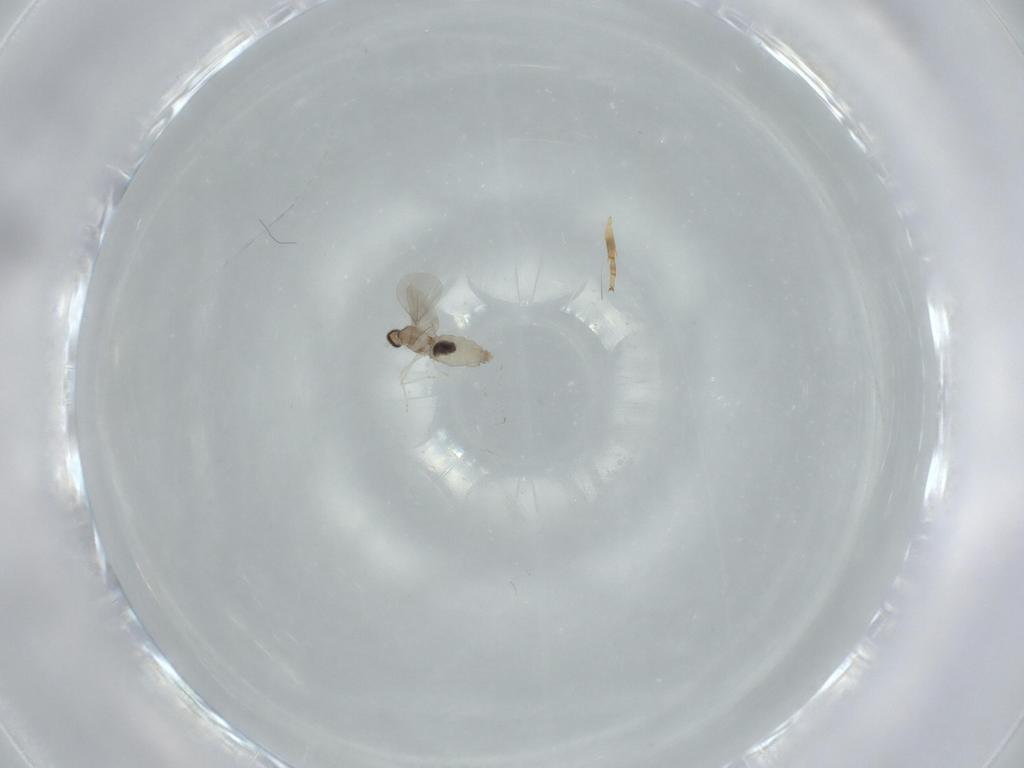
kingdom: Animalia
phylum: Arthropoda
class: Insecta
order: Diptera
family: Cecidomyiidae
